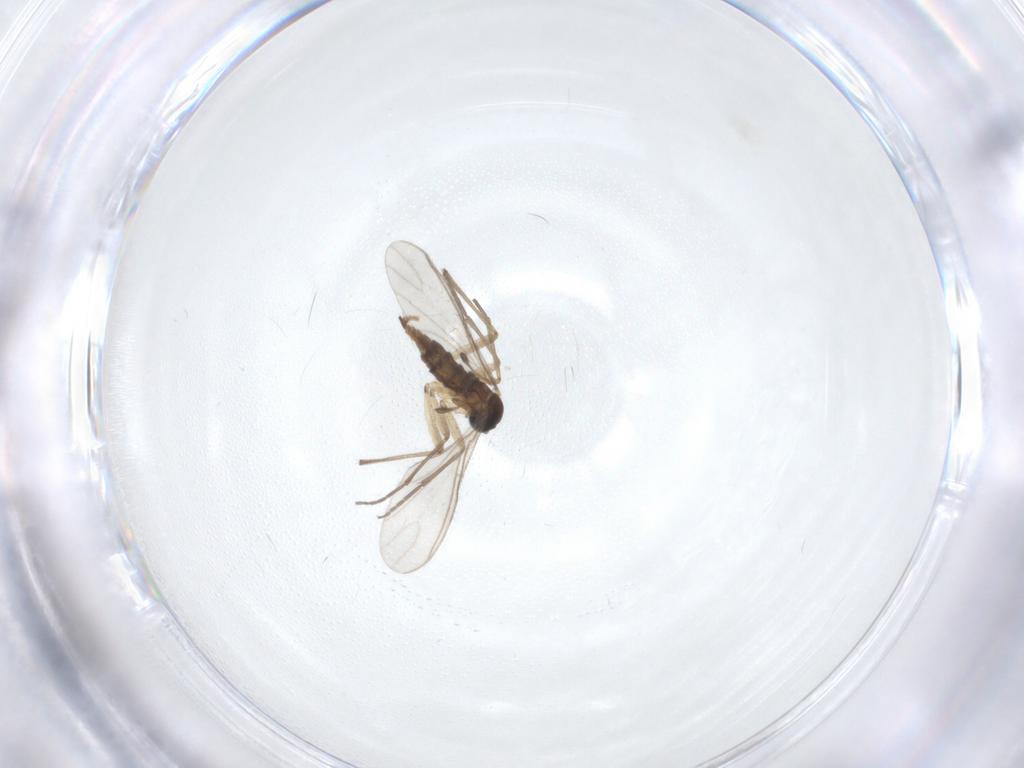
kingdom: Animalia
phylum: Arthropoda
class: Insecta
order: Diptera
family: Sciaridae
